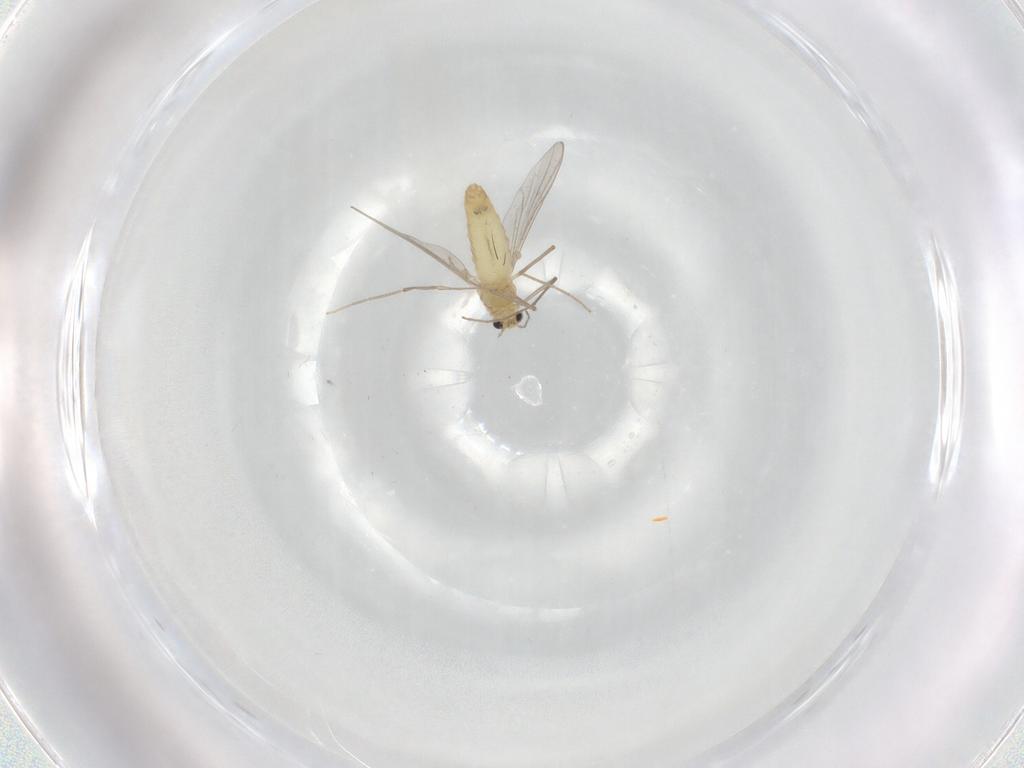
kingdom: Animalia
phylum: Arthropoda
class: Insecta
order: Diptera
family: Chironomidae
